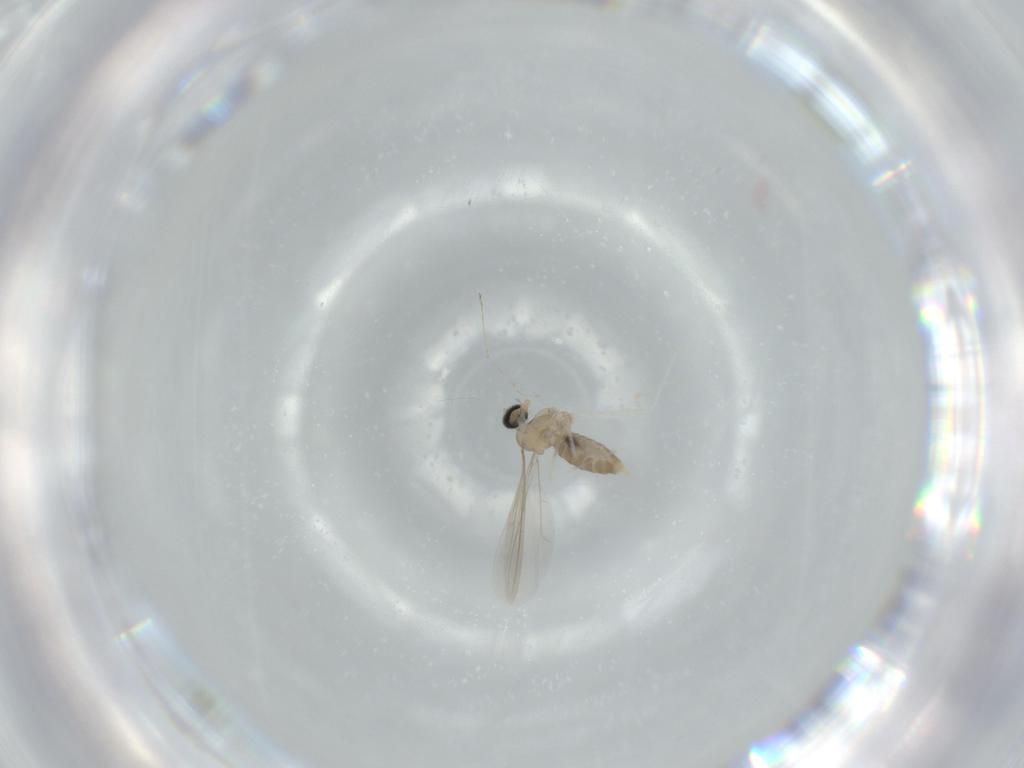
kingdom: Animalia
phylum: Arthropoda
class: Insecta
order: Diptera
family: Cecidomyiidae
